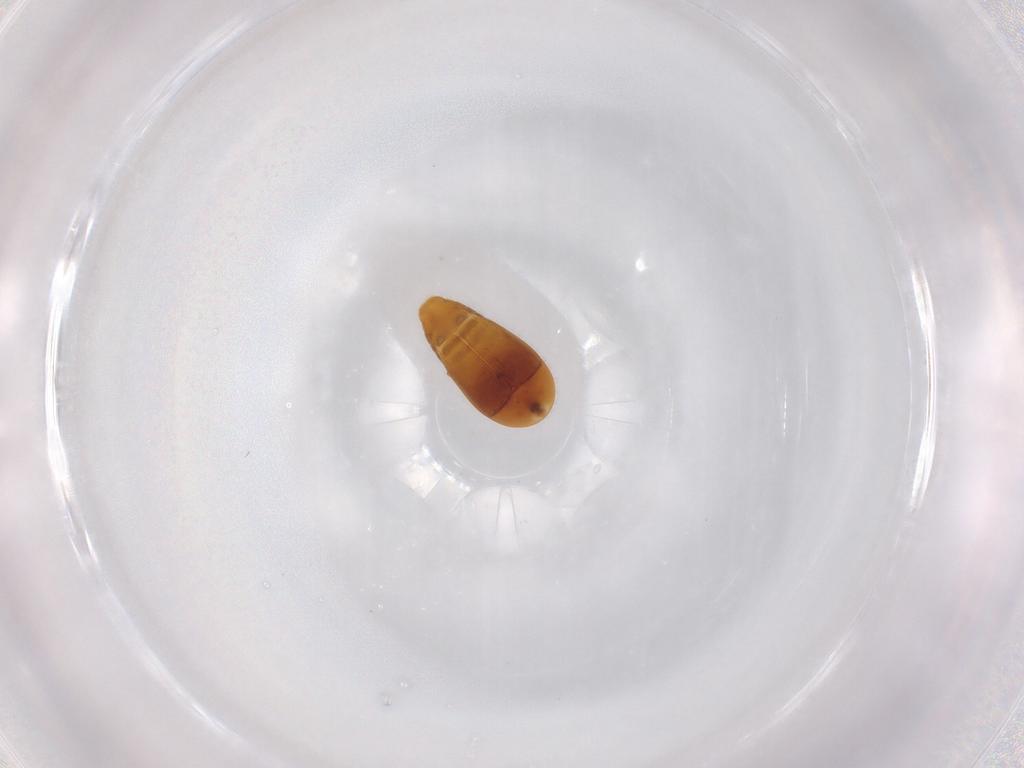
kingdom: Animalia
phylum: Arthropoda
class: Insecta
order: Coleoptera
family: Corylophidae
